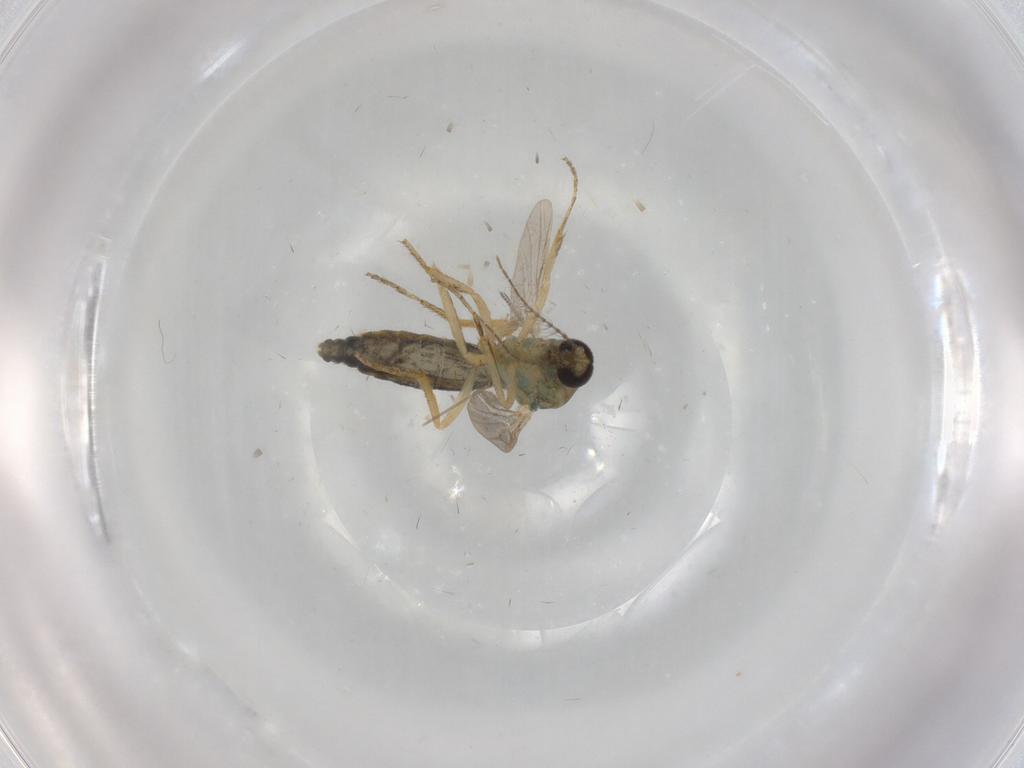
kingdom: Animalia
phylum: Arthropoda
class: Insecta
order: Diptera
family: Ceratopogonidae
